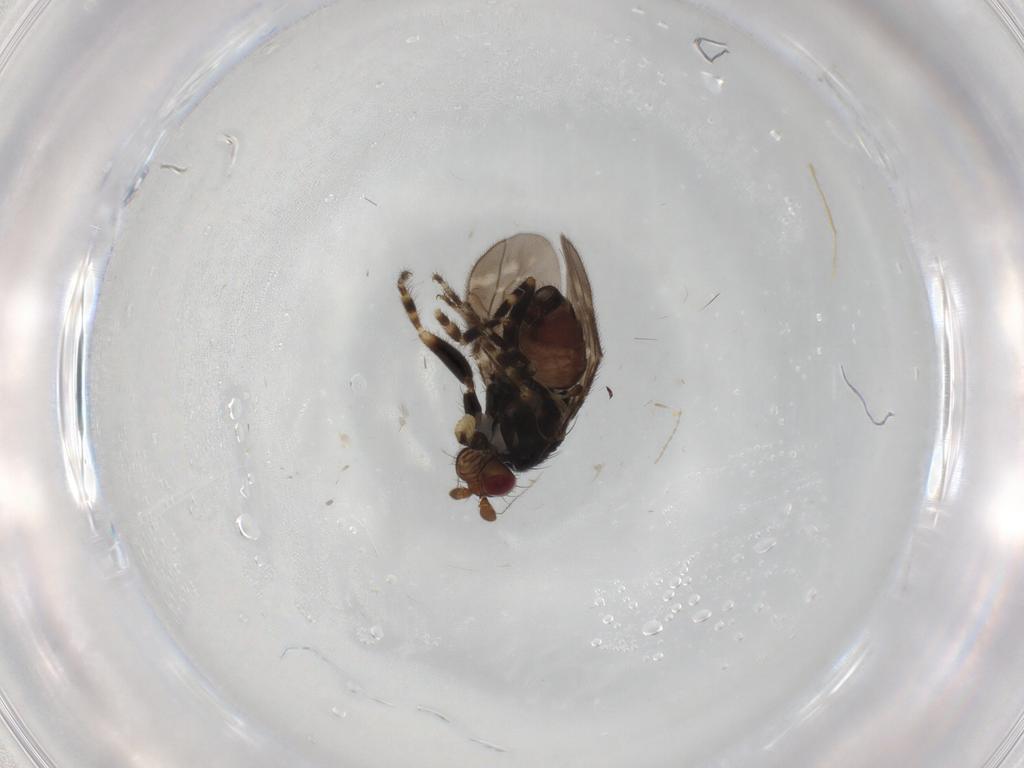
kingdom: Animalia
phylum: Arthropoda
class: Insecta
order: Diptera
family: Sphaeroceridae
